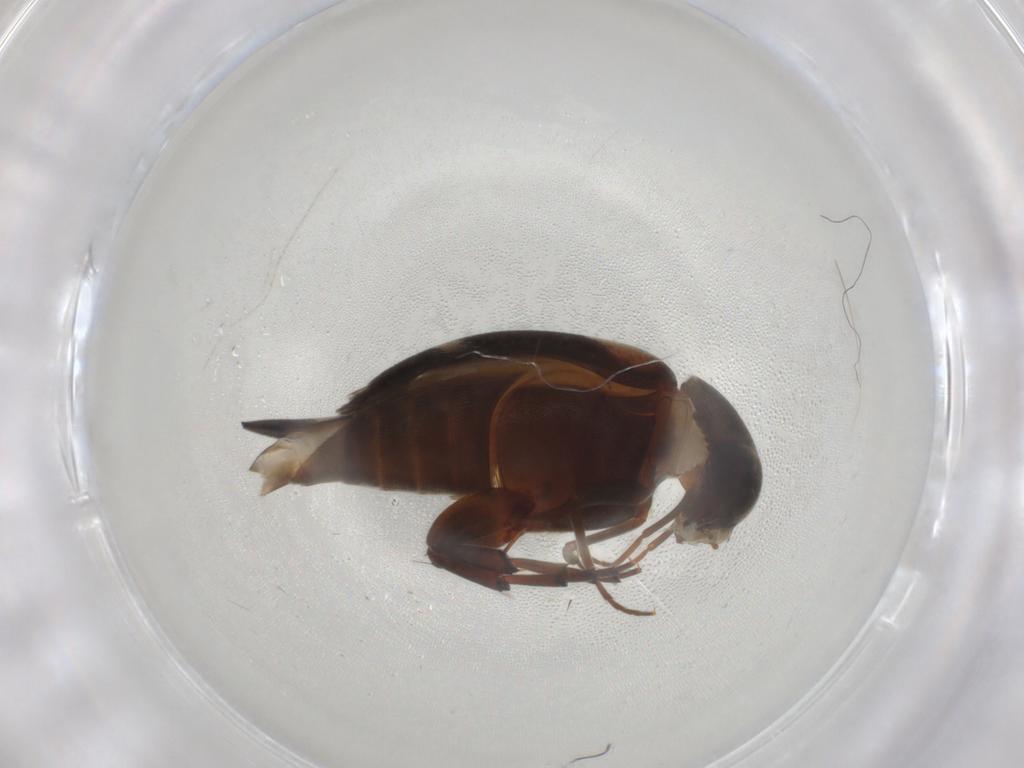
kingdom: Animalia
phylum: Arthropoda
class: Insecta
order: Coleoptera
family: Mordellidae
